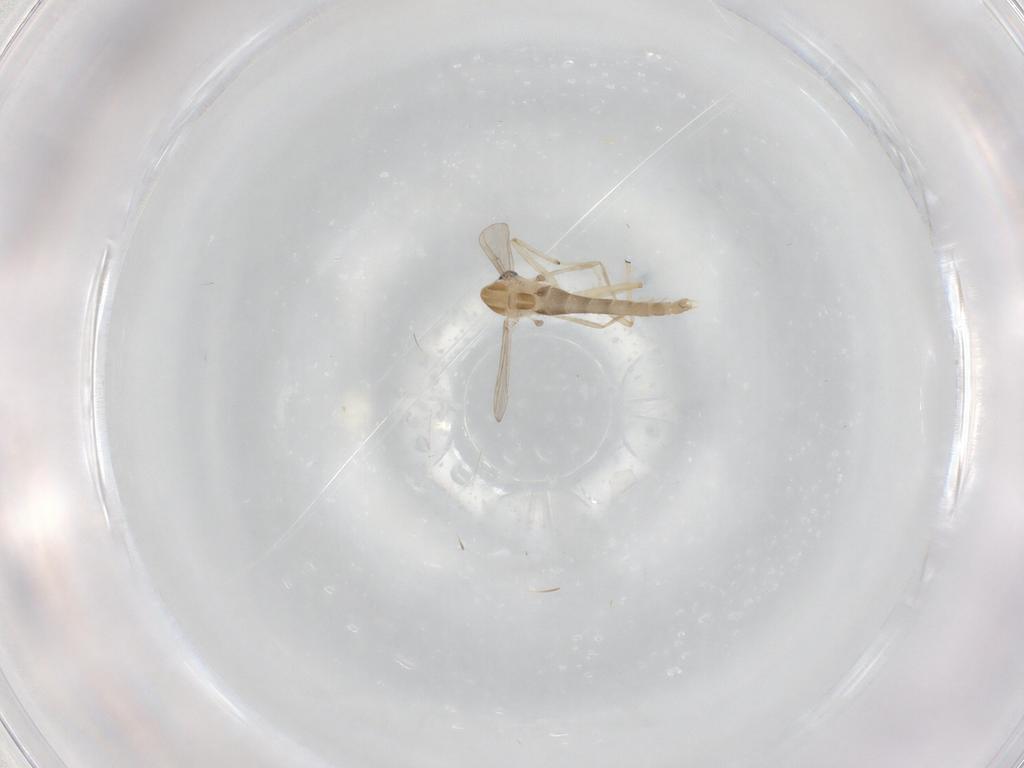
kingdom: Animalia
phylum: Arthropoda
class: Insecta
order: Diptera
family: Chironomidae
